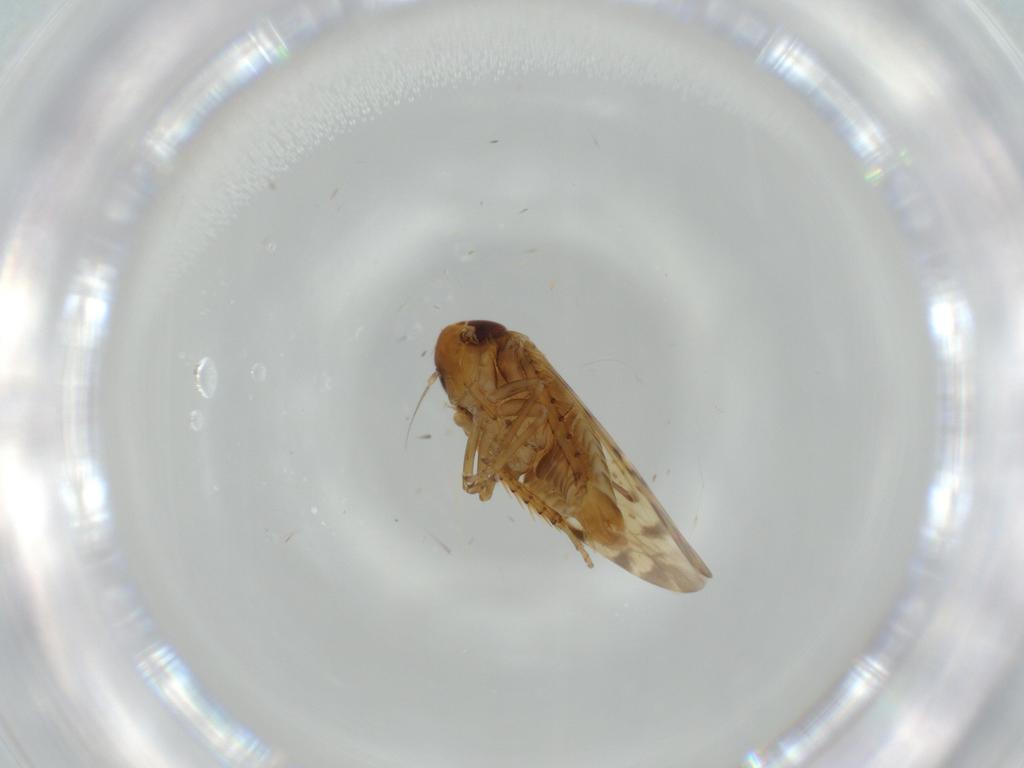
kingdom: Animalia
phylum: Arthropoda
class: Insecta
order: Hemiptera
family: Cicadellidae
